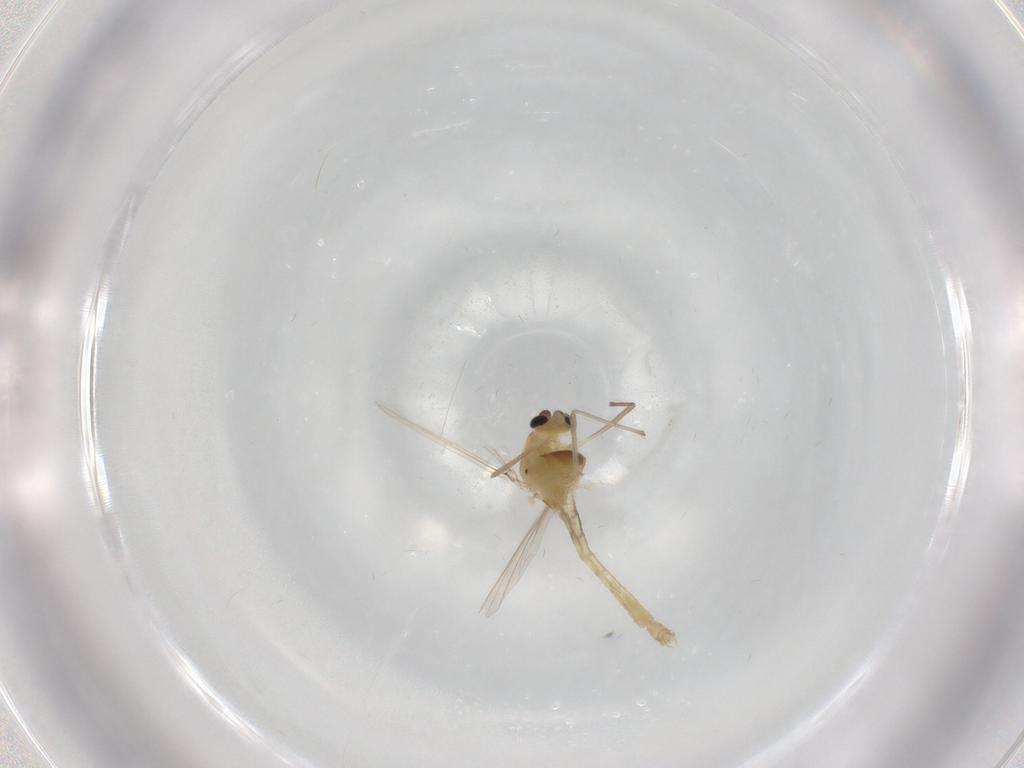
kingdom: Animalia
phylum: Arthropoda
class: Insecta
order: Diptera
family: Chironomidae
